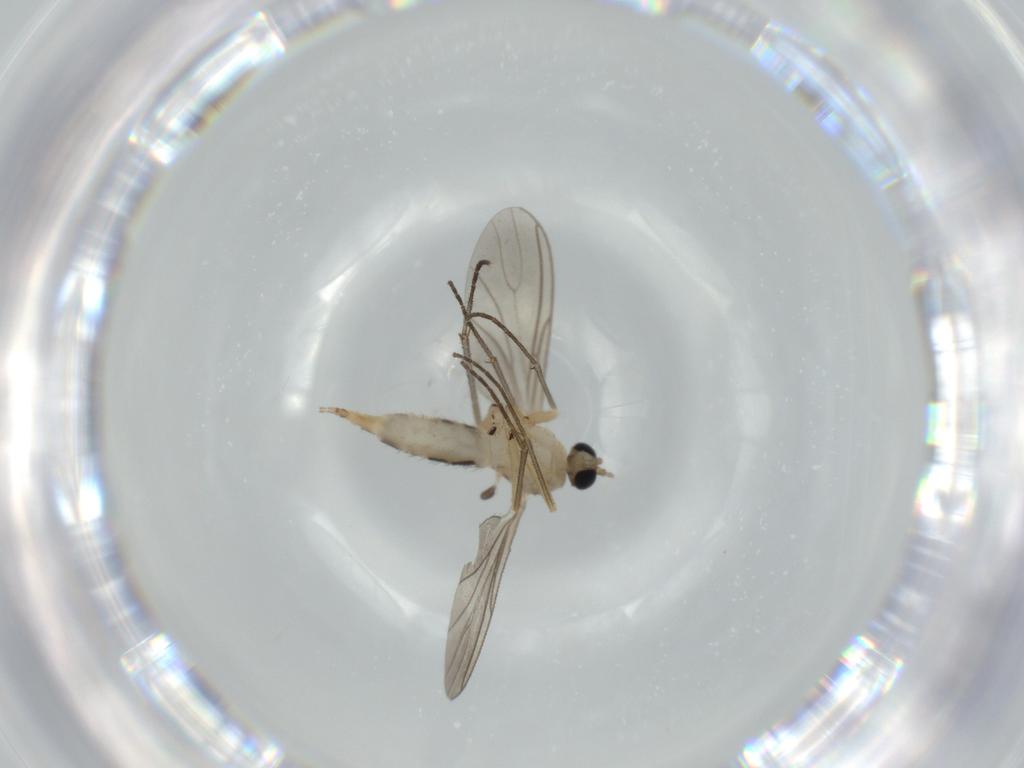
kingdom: Animalia
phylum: Arthropoda
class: Insecta
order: Diptera
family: Sciaridae
